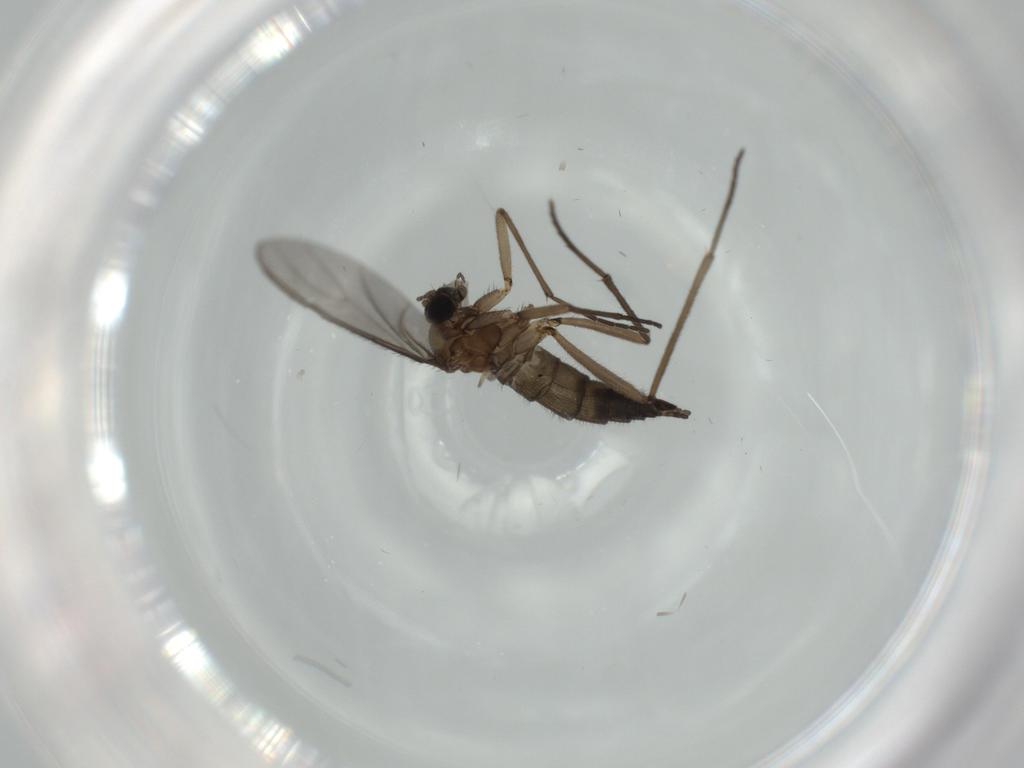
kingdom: Animalia
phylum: Arthropoda
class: Insecta
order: Diptera
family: Sciaridae
